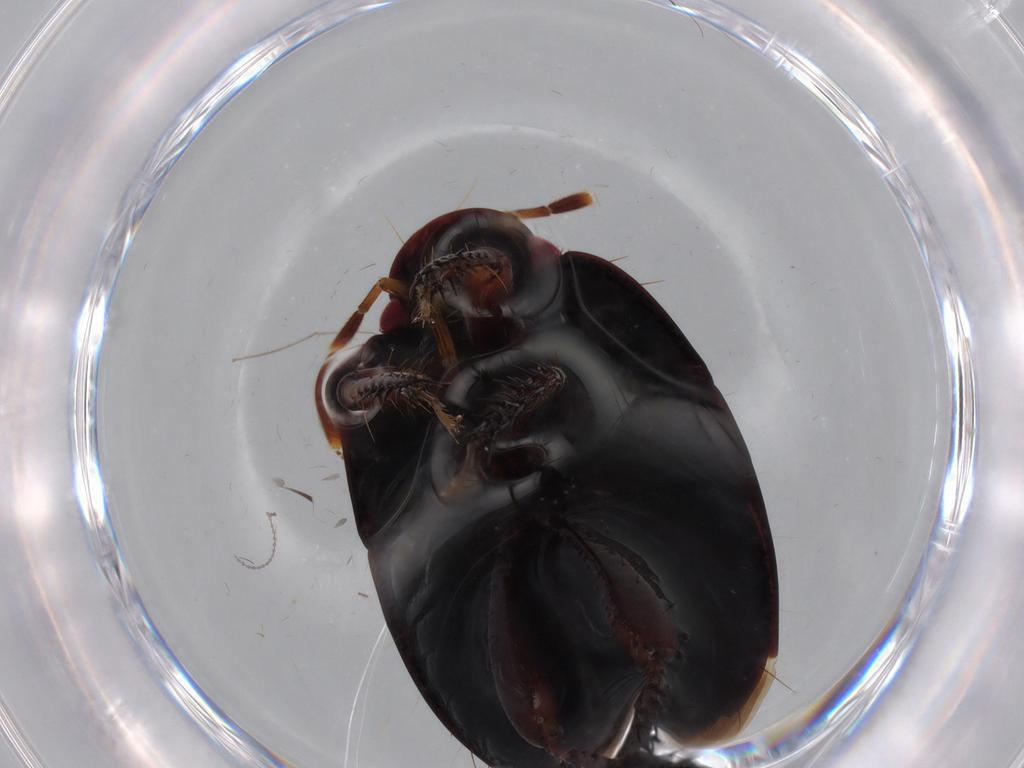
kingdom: Animalia
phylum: Arthropoda
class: Insecta
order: Hemiptera
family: Cydnidae
